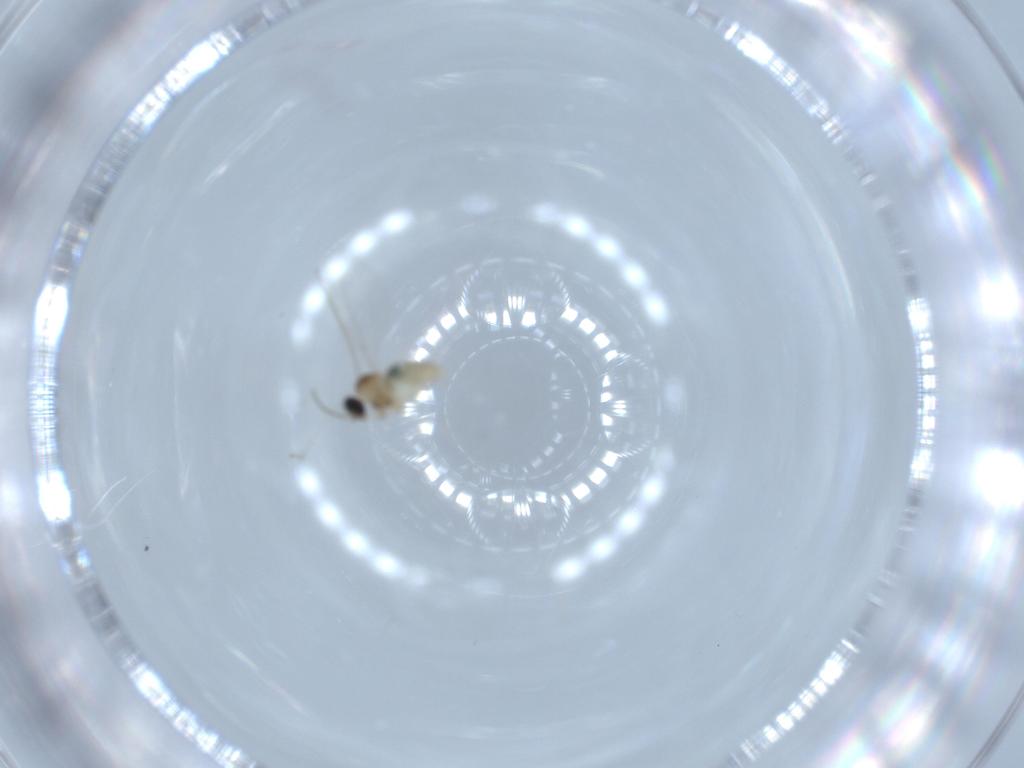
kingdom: Animalia
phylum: Arthropoda
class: Insecta
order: Diptera
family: Cecidomyiidae
